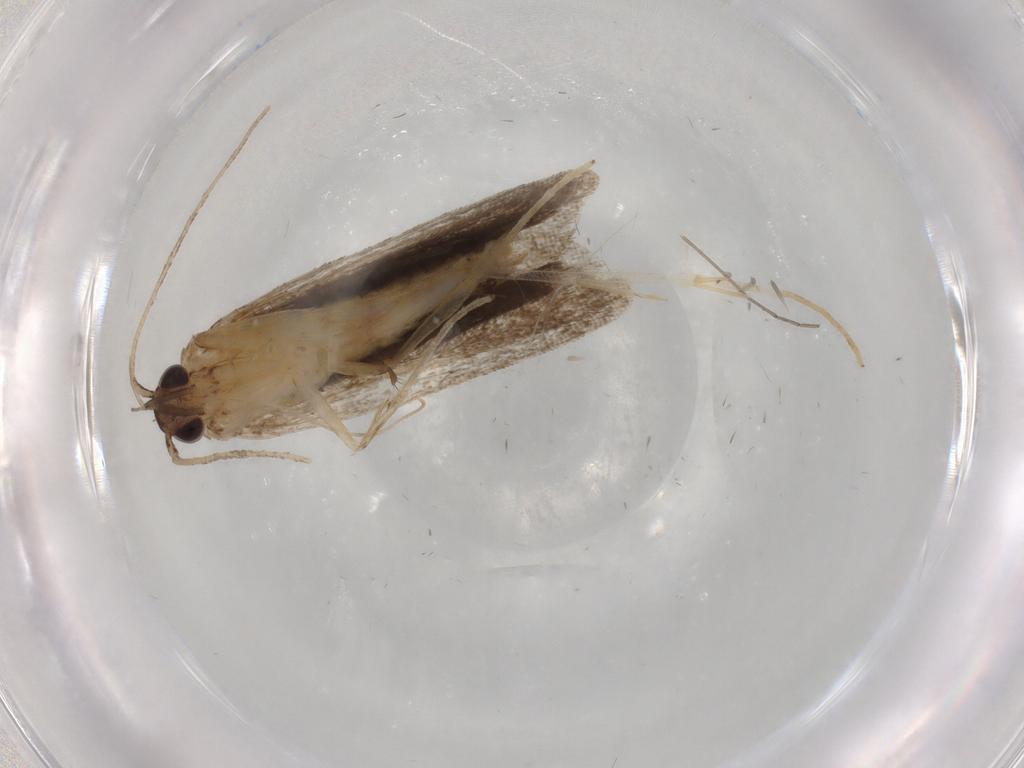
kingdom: Animalia
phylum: Arthropoda
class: Insecta
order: Lepidoptera
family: Cosmopterigidae
